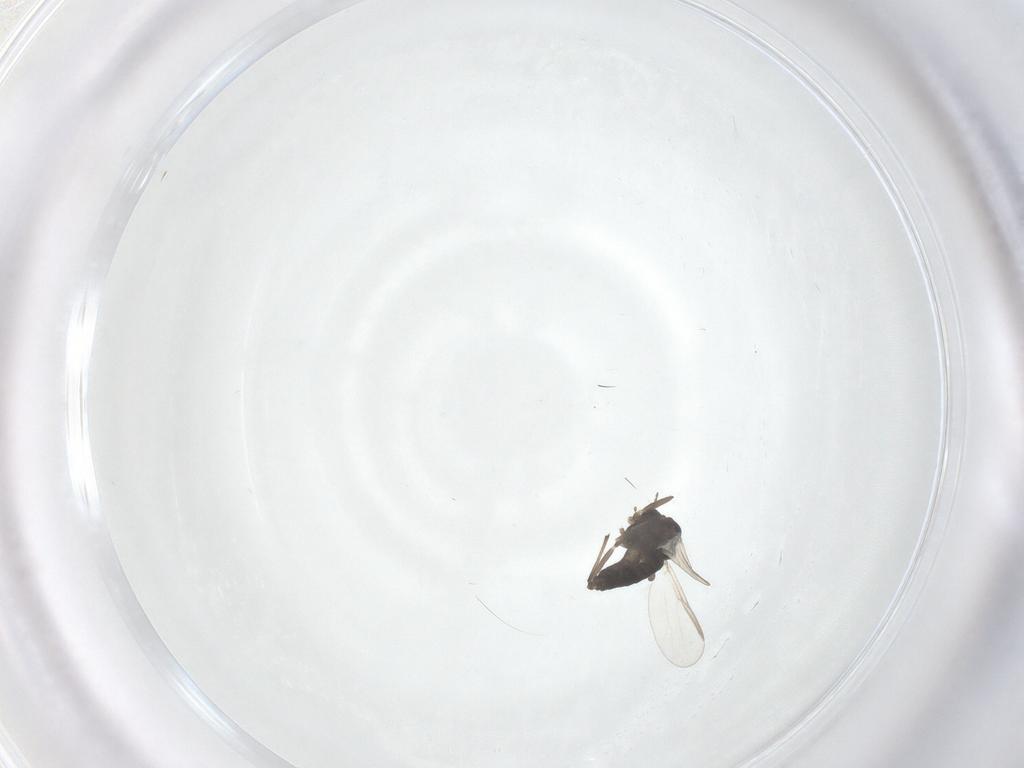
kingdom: Animalia
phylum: Arthropoda
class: Insecta
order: Diptera
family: Chironomidae
